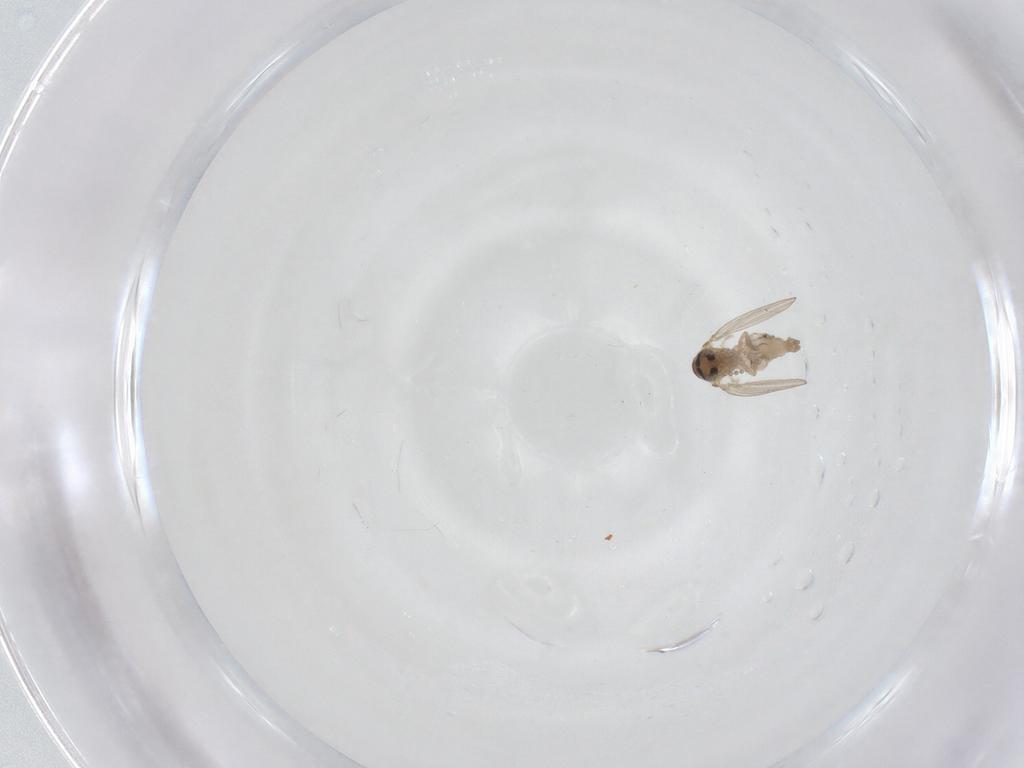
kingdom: Animalia
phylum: Arthropoda
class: Insecta
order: Diptera
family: Psychodidae
